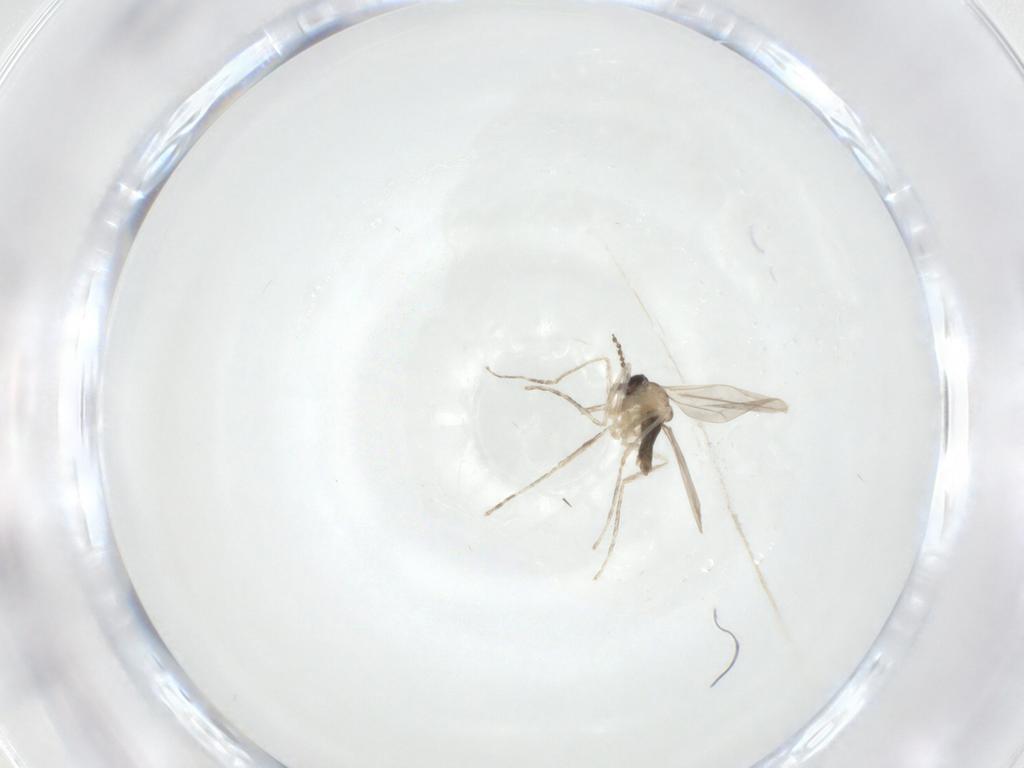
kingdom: Animalia
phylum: Arthropoda
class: Insecta
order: Diptera
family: Cecidomyiidae
